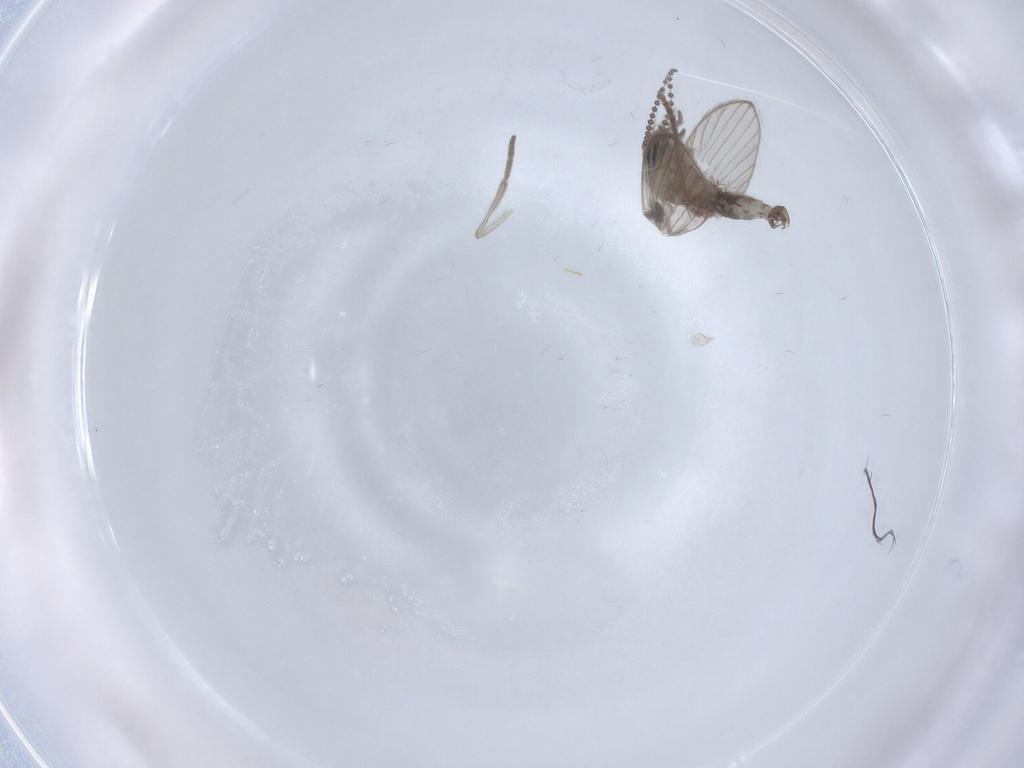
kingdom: Animalia
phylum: Arthropoda
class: Insecta
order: Diptera
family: Psychodidae
